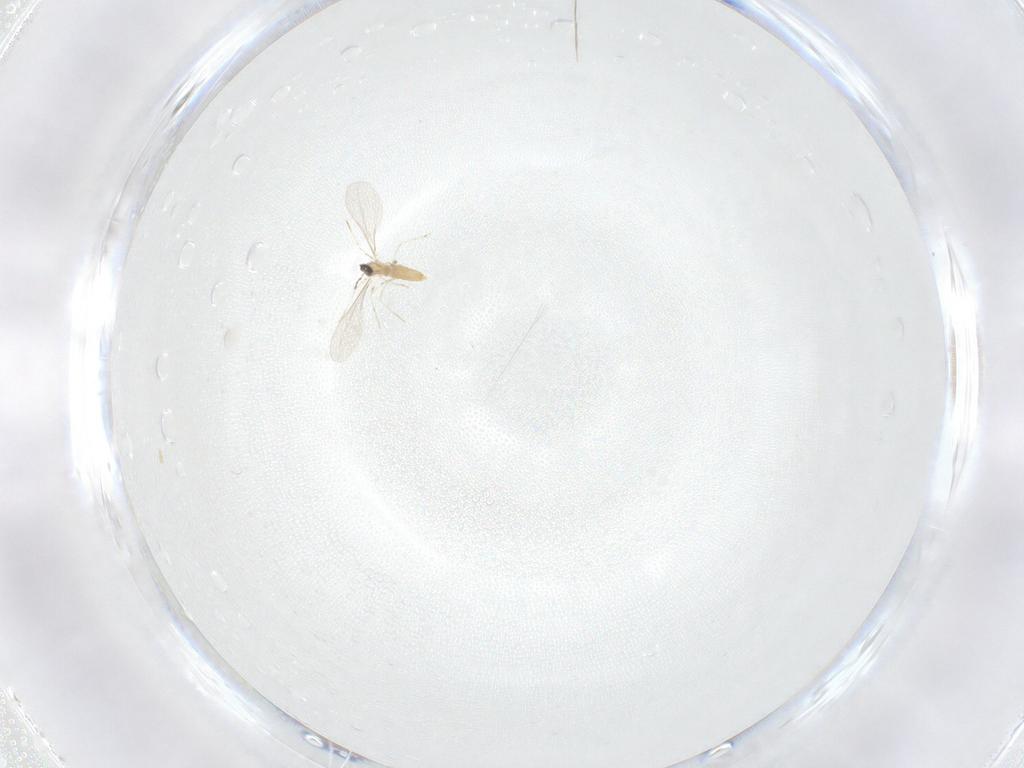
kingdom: Animalia
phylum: Arthropoda
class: Insecta
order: Diptera
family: Cecidomyiidae
